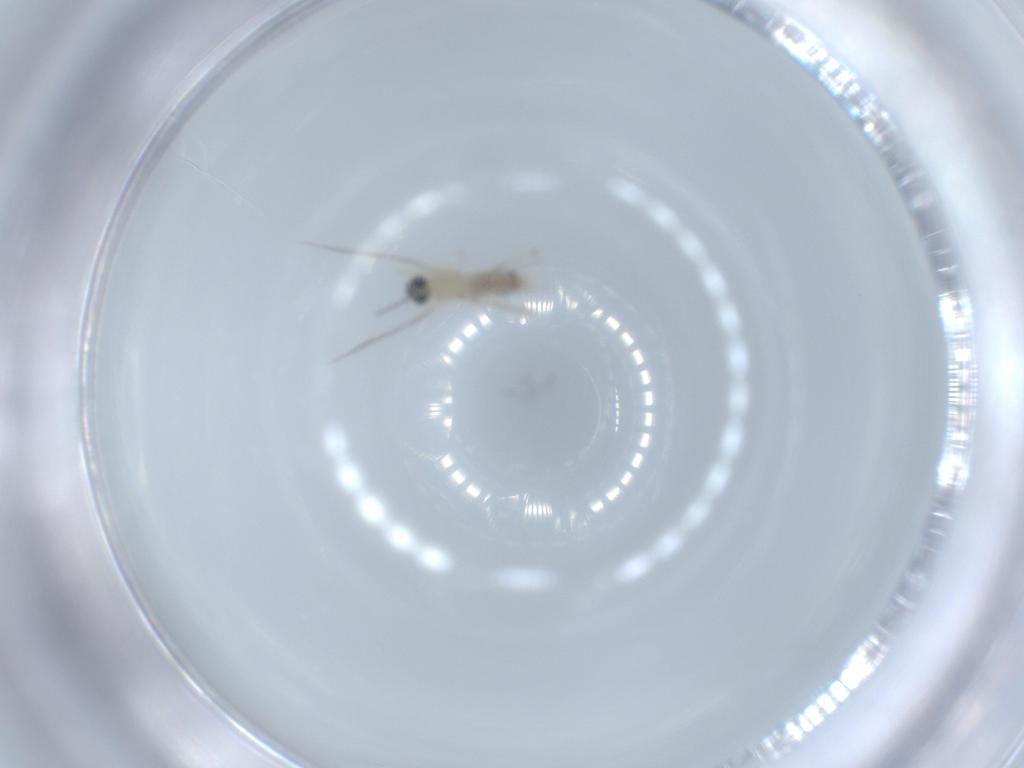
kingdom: Animalia
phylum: Arthropoda
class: Insecta
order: Diptera
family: Cecidomyiidae
